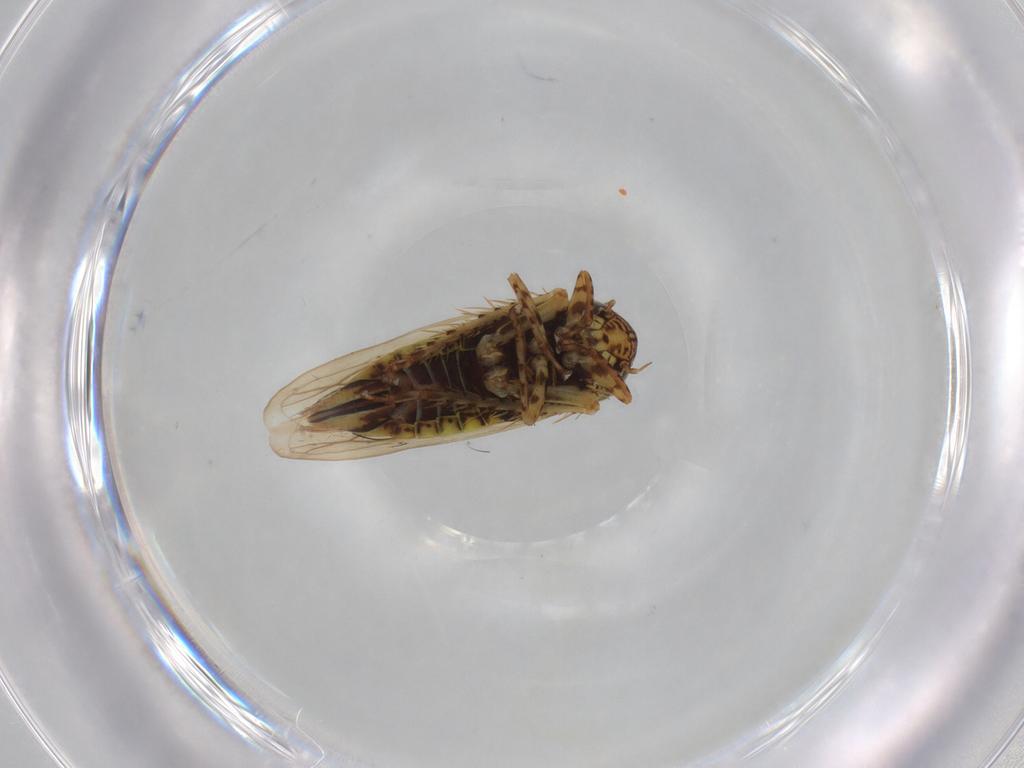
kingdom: Animalia
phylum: Arthropoda
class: Insecta
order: Hemiptera
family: Cicadellidae
